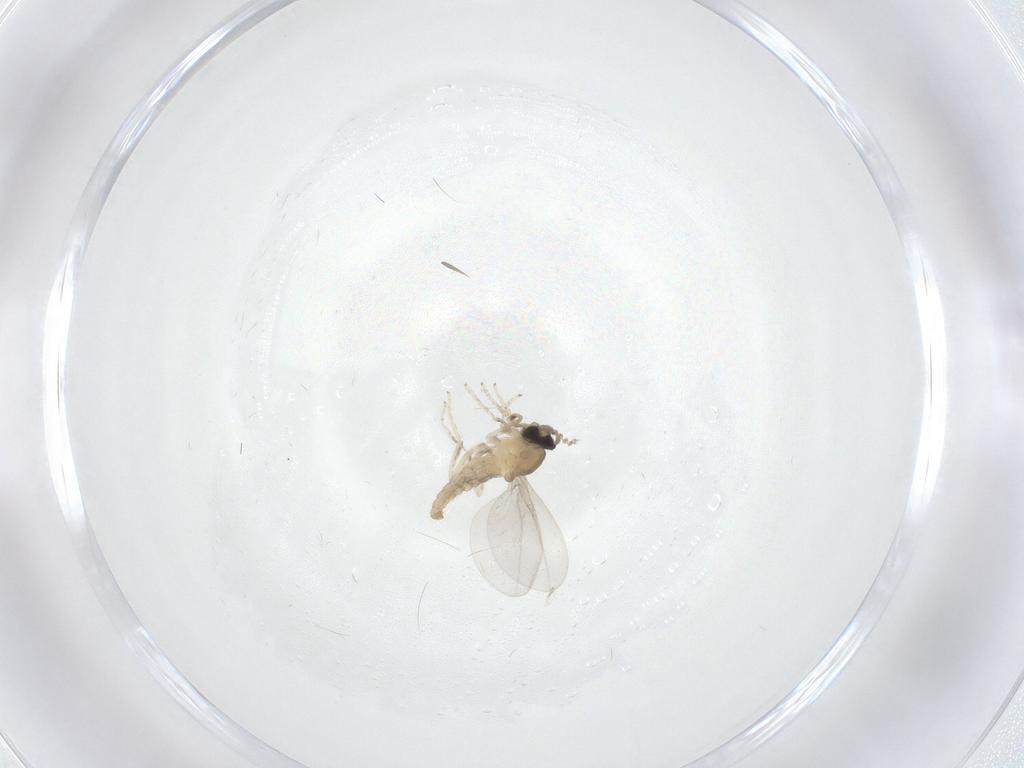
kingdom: Animalia
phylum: Arthropoda
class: Insecta
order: Diptera
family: Cecidomyiidae
